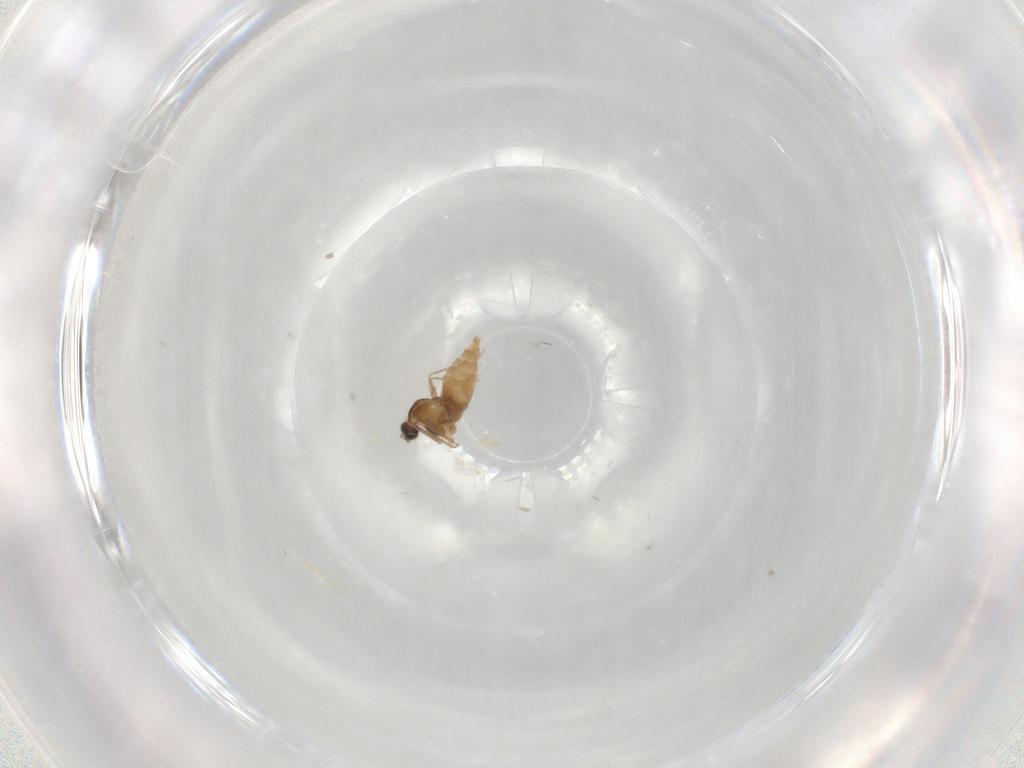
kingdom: Animalia
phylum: Arthropoda
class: Insecta
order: Diptera
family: Cecidomyiidae
